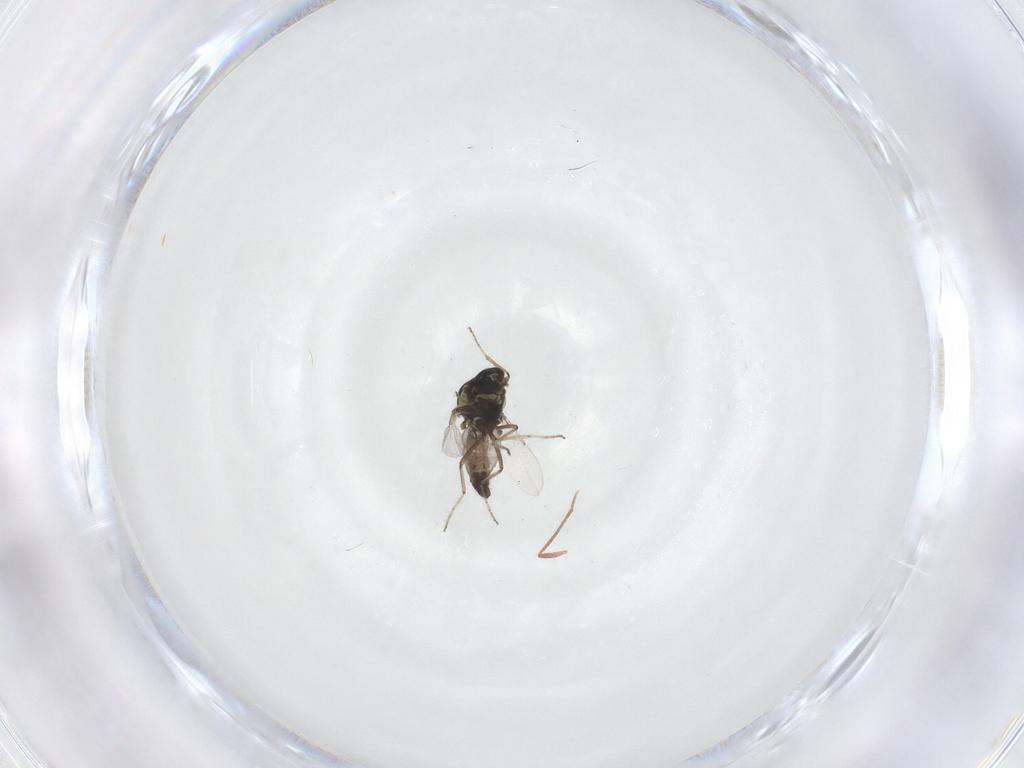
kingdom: Animalia
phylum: Arthropoda
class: Insecta
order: Diptera
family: Ceratopogonidae
